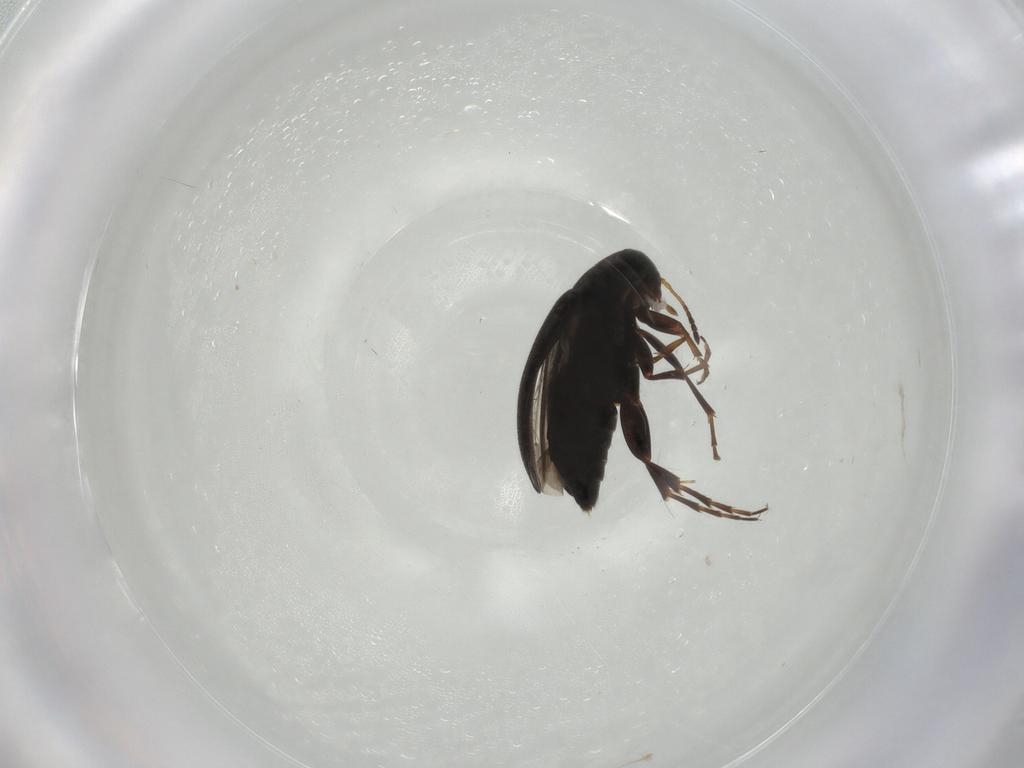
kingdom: Animalia
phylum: Arthropoda
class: Insecta
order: Coleoptera
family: Scraptiidae
